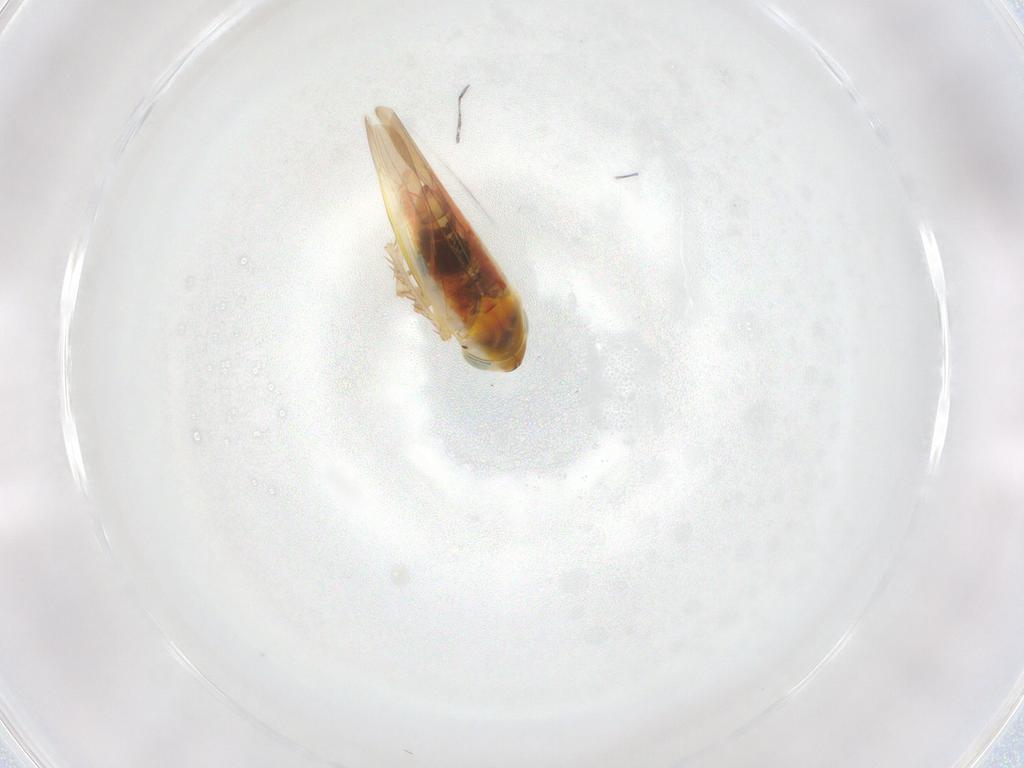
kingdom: Animalia
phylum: Arthropoda
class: Insecta
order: Hemiptera
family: Cicadellidae
